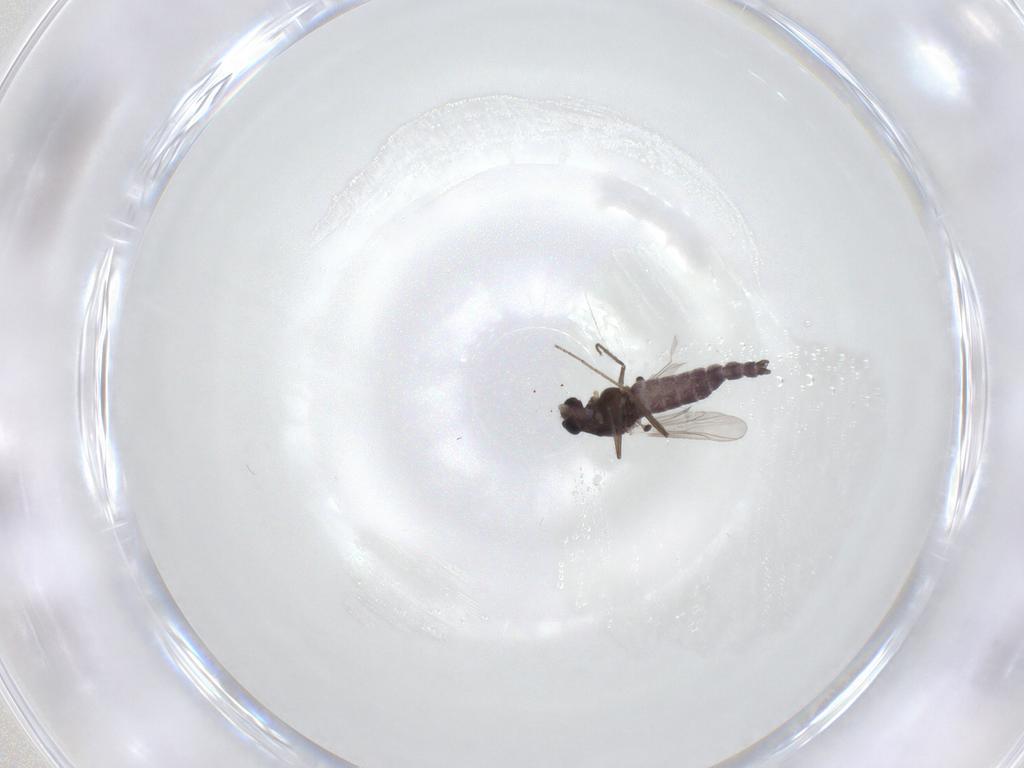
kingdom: Animalia
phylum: Arthropoda
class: Insecta
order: Diptera
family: Chironomidae
